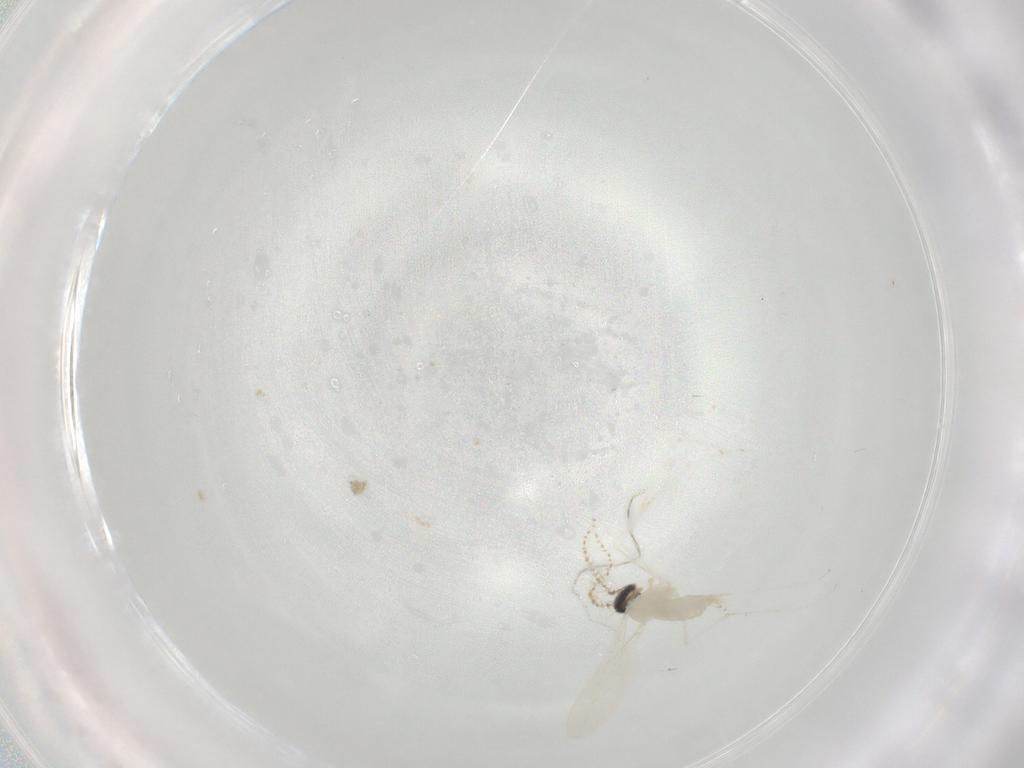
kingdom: Animalia
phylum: Arthropoda
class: Insecta
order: Diptera
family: Cecidomyiidae
